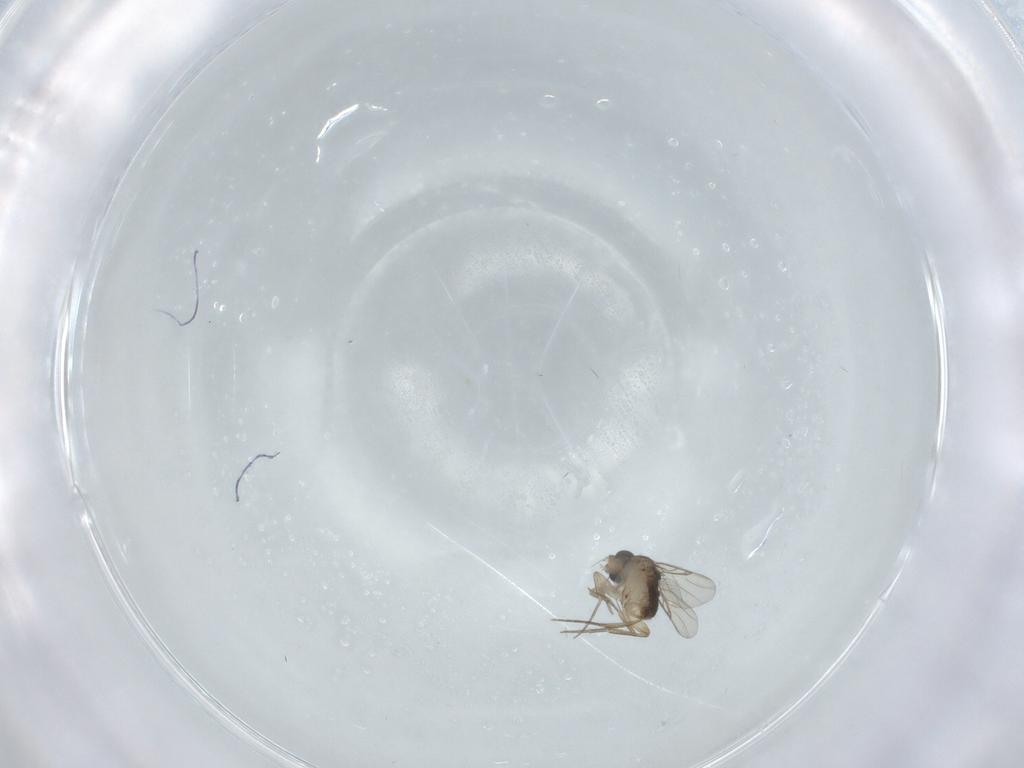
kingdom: Animalia
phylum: Arthropoda
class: Insecta
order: Diptera
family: Phoridae
